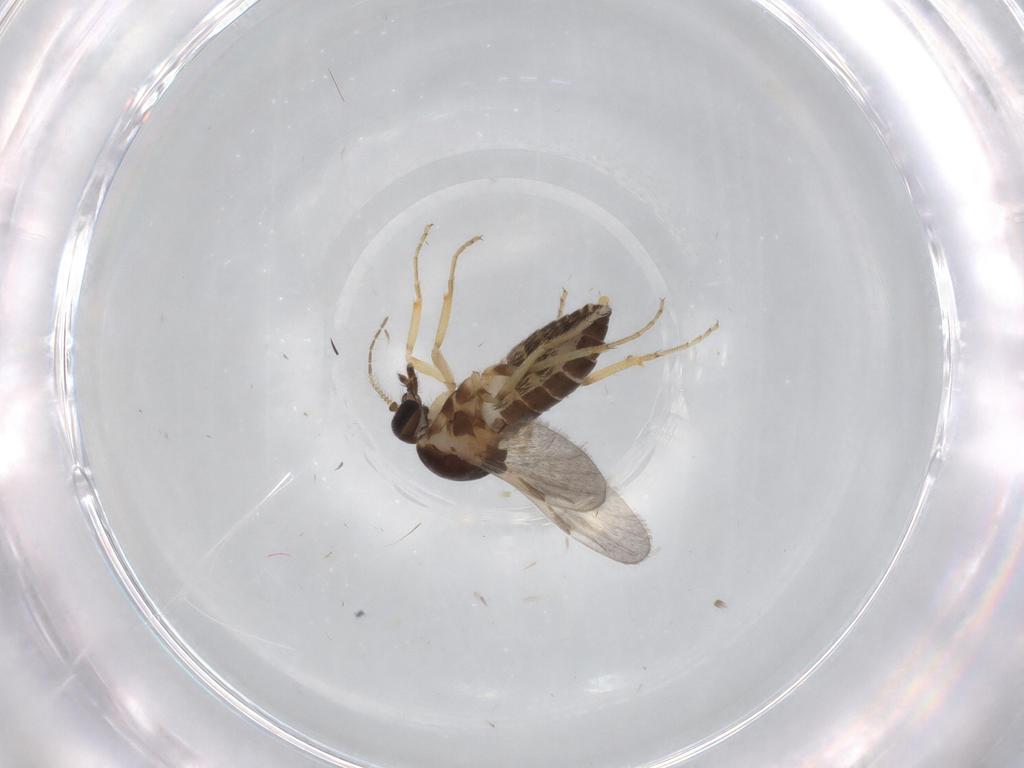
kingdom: Animalia
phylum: Arthropoda
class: Insecta
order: Diptera
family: Ceratopogonidae
